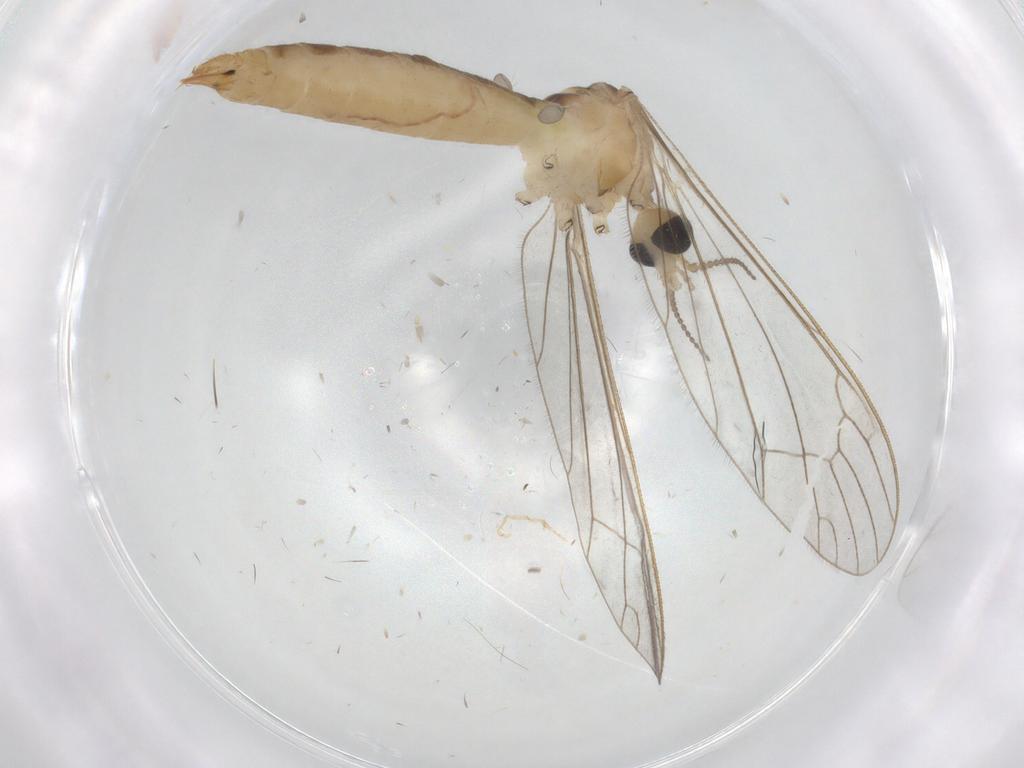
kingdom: Animalia
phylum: Arthropoda
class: Insecta
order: Diptera
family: Limoniidae
